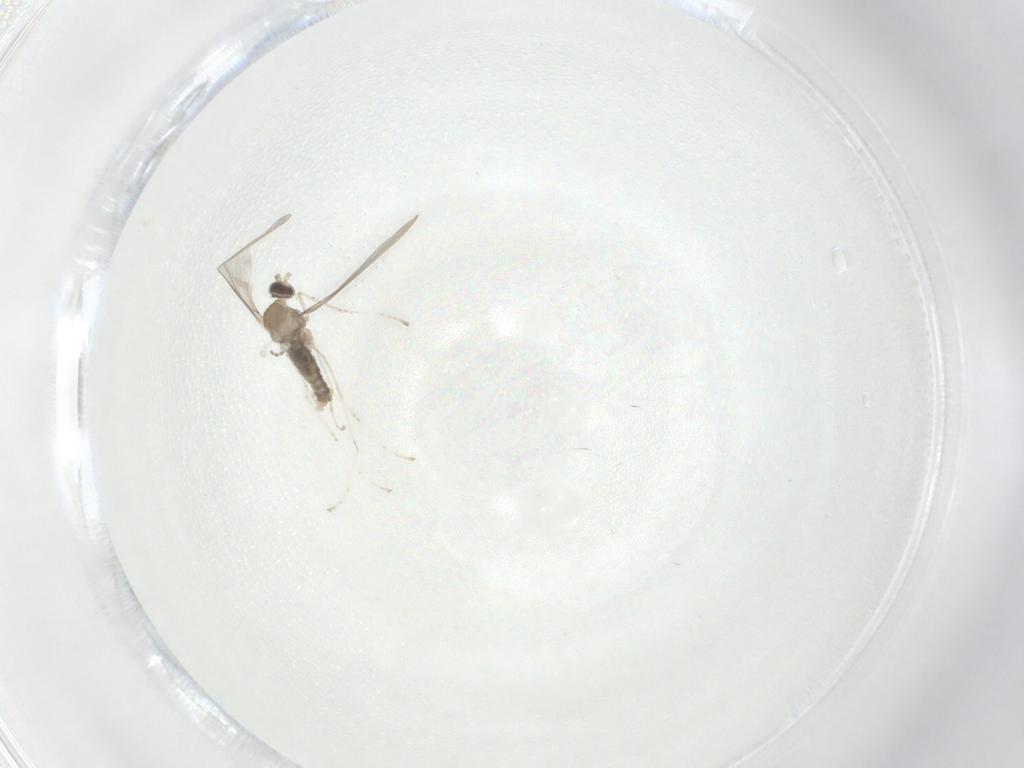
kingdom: Animalia
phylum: Arthropoda
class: Insecta
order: Diptera
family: Cecidomyiidae
